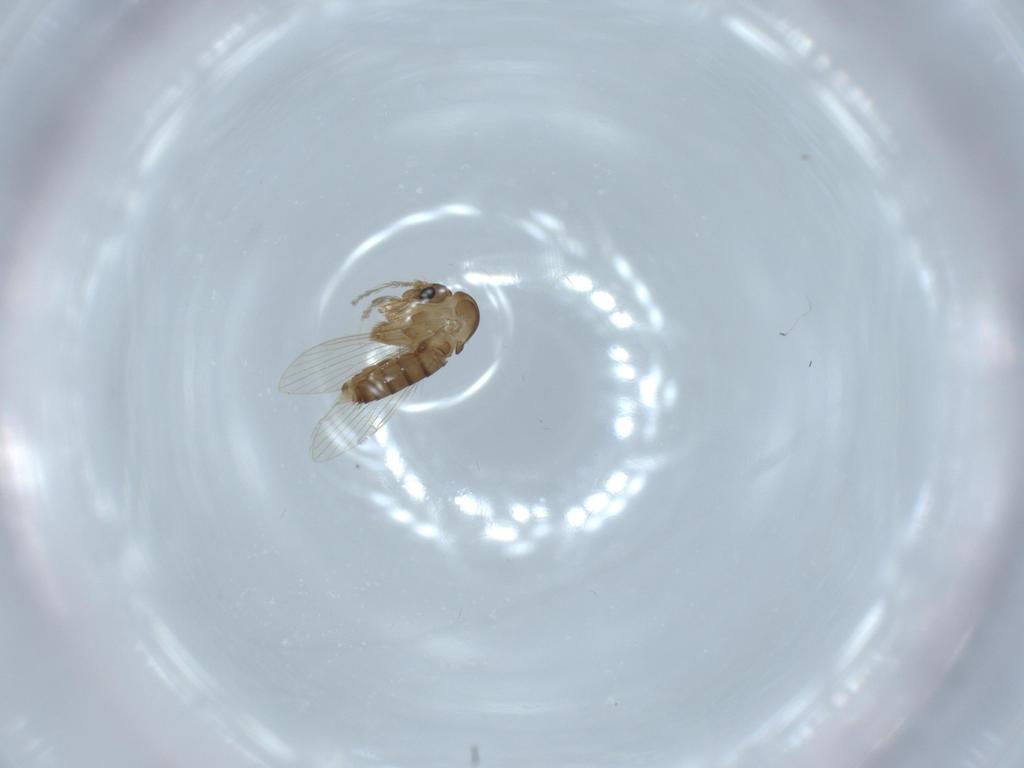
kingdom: Animalia
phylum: Arthropoda
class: Insecta
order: Diptera
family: Psychodidae
